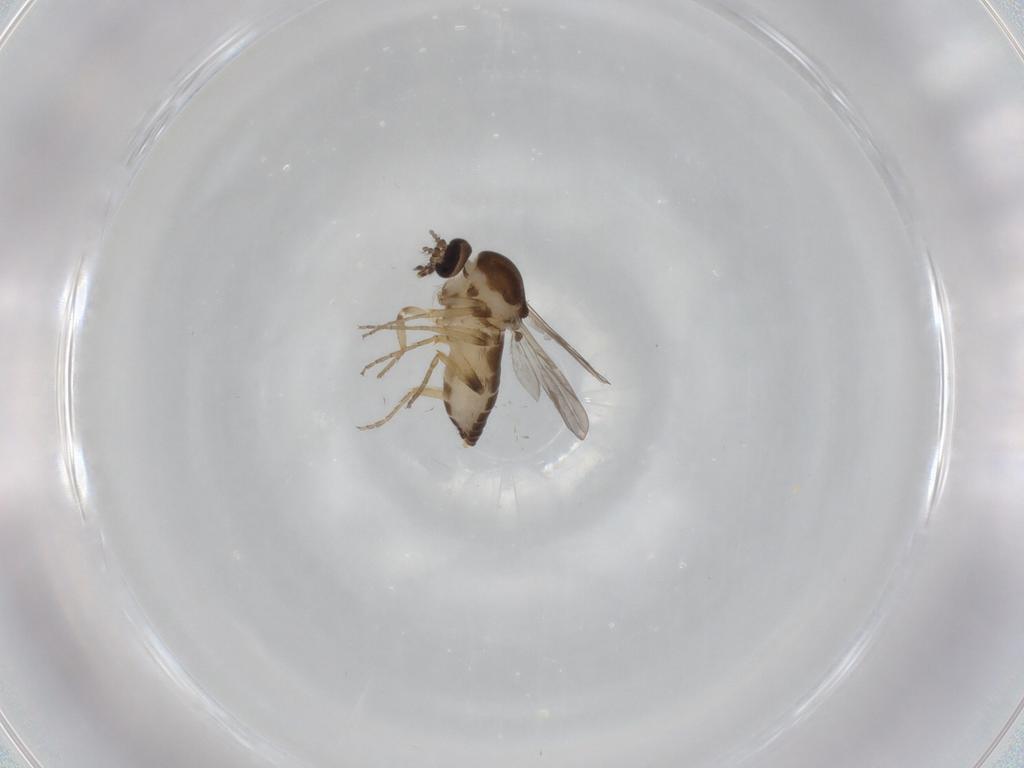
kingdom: Animalia
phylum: Arthropoda
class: Insecta
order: Diptera
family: Ceratopogonidae
